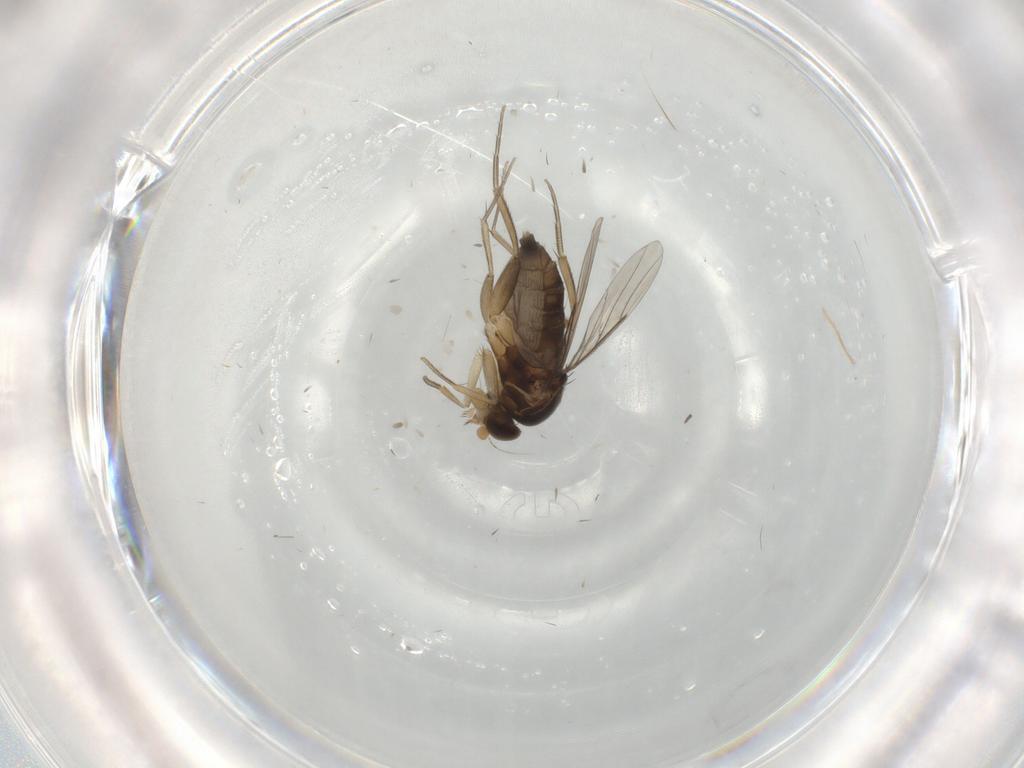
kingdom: Animalia
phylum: Arthropoda
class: Insecta
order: Diptera
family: Phoridae
